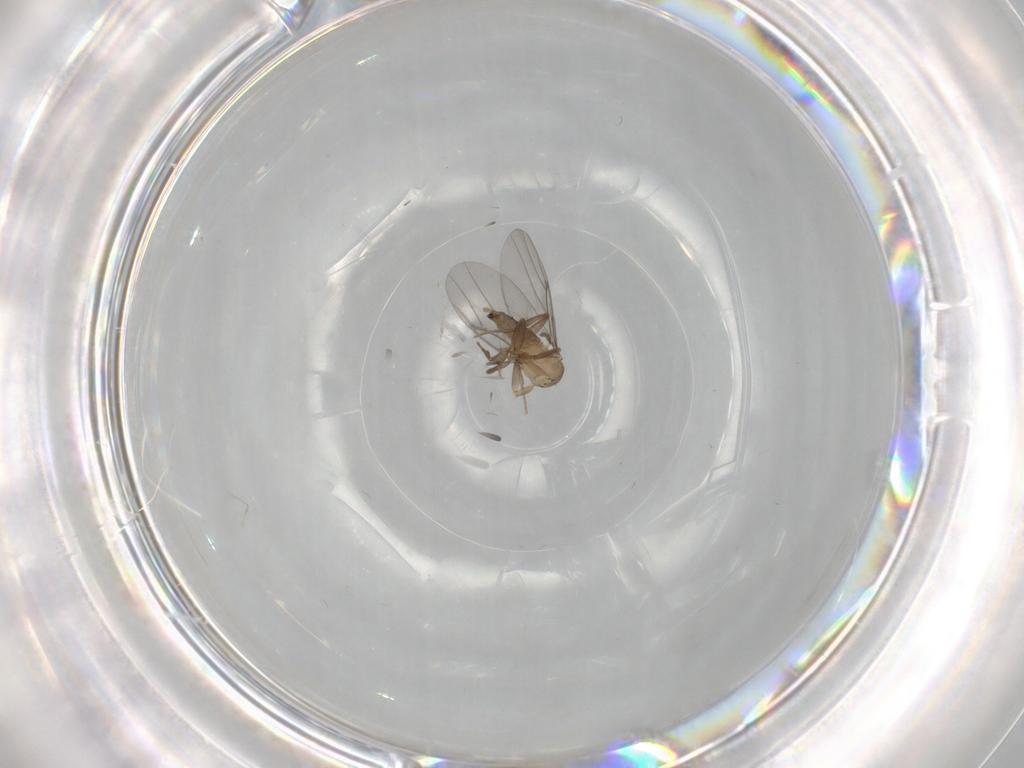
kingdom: Animalia
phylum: Arthropoda
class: Insecta
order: Diptera
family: Cecidomyiidae
